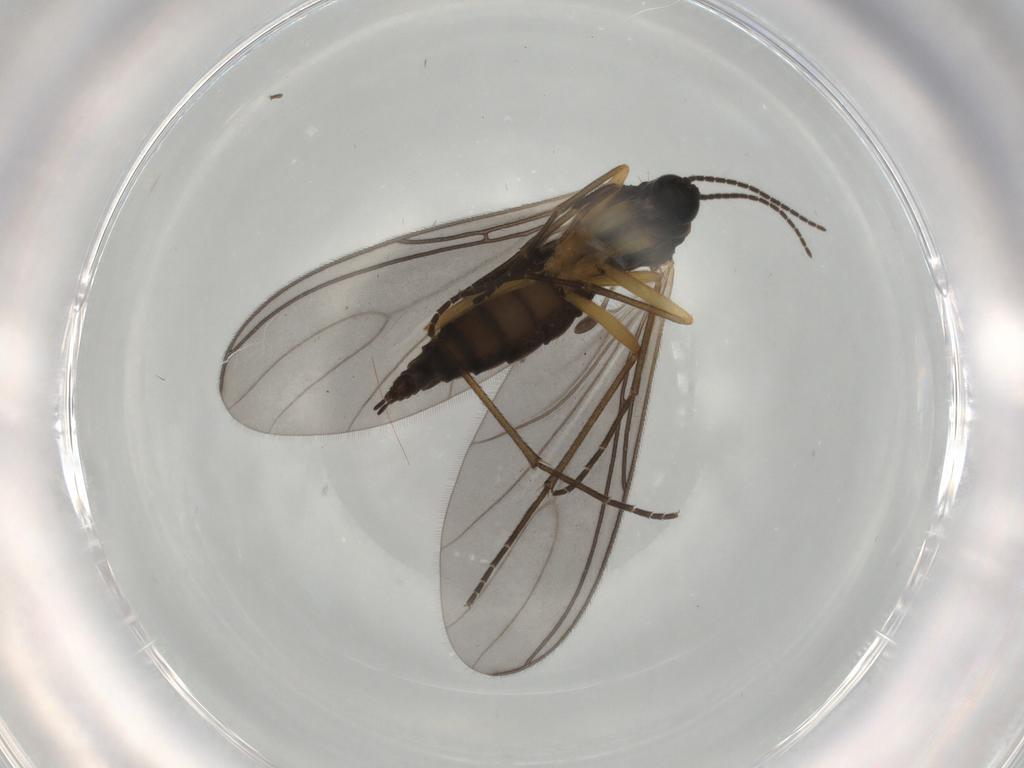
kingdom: Animalia
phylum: Arthropoda
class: Insecta
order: Diptera
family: Sciaridae
